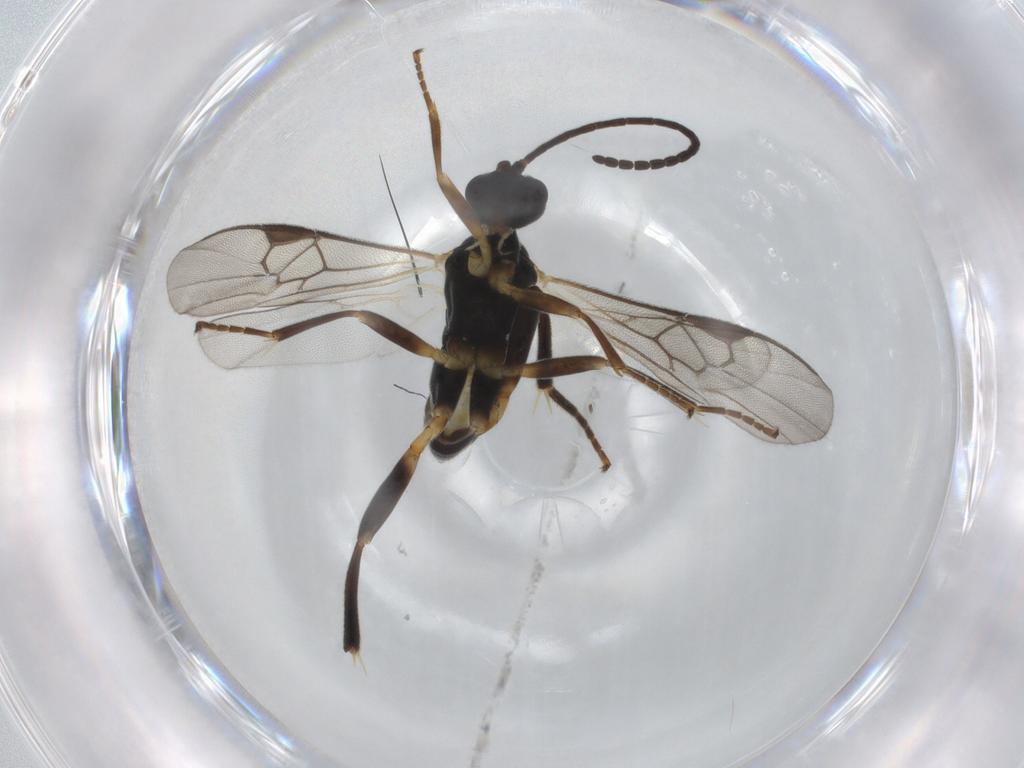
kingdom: Animalia
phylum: Arthropoda
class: Insecta
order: Hymenoptera
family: Braconidae
